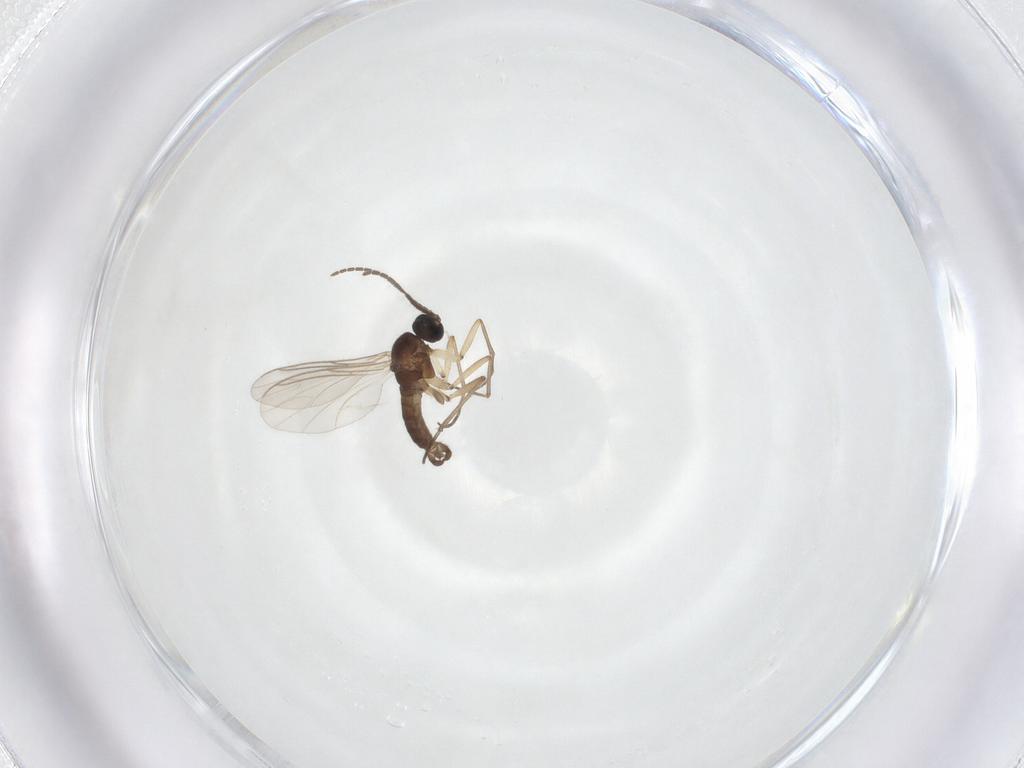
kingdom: Animalia
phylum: Arthropoda
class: Insecta
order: Diptera
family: Sciaridae
